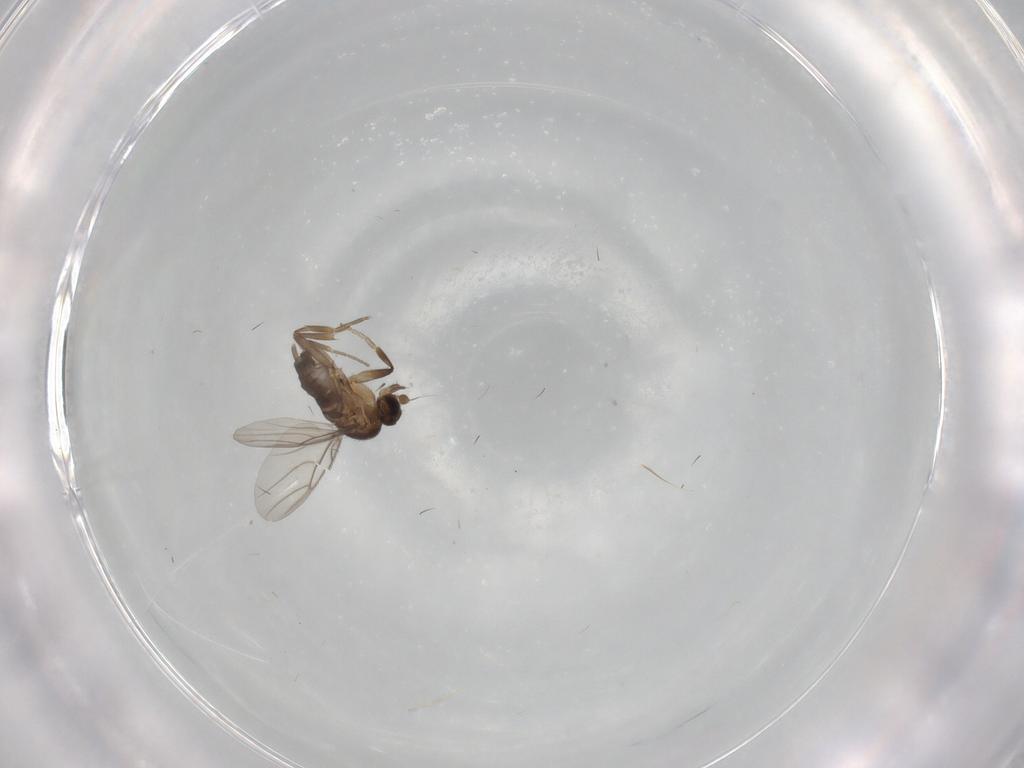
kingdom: Animalia
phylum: Arthropoda
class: Insecta
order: Diptera
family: Phoridae
